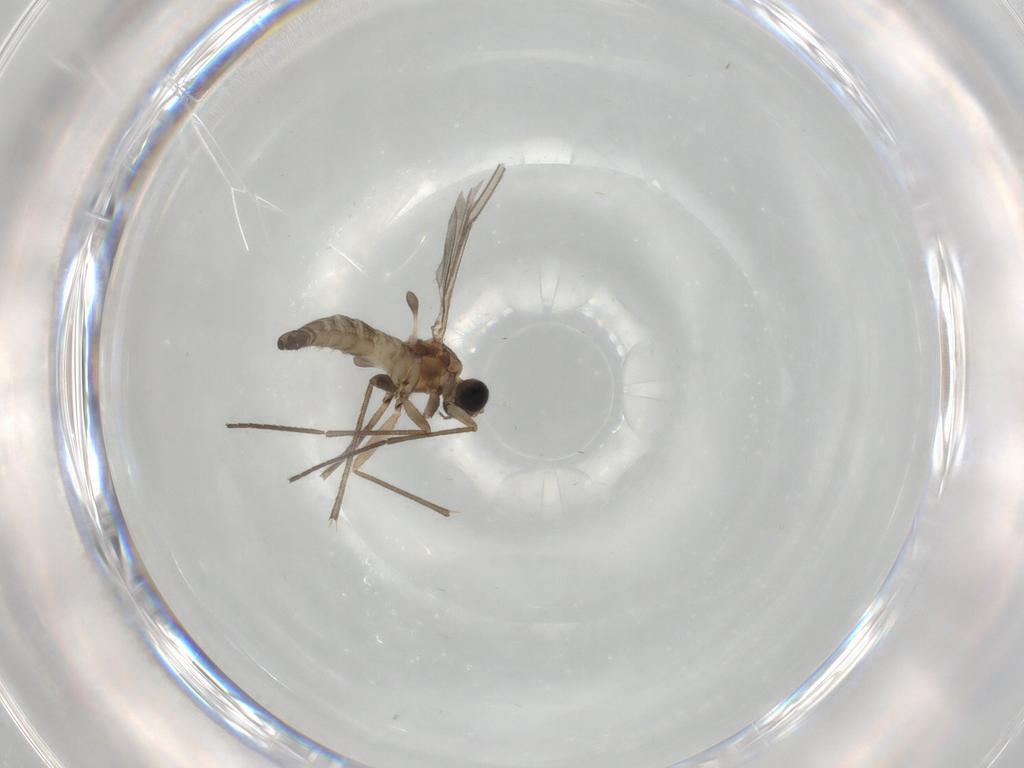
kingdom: Animalia
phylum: Arthropoda
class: Insecta
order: Diptera
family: Sciaridae
